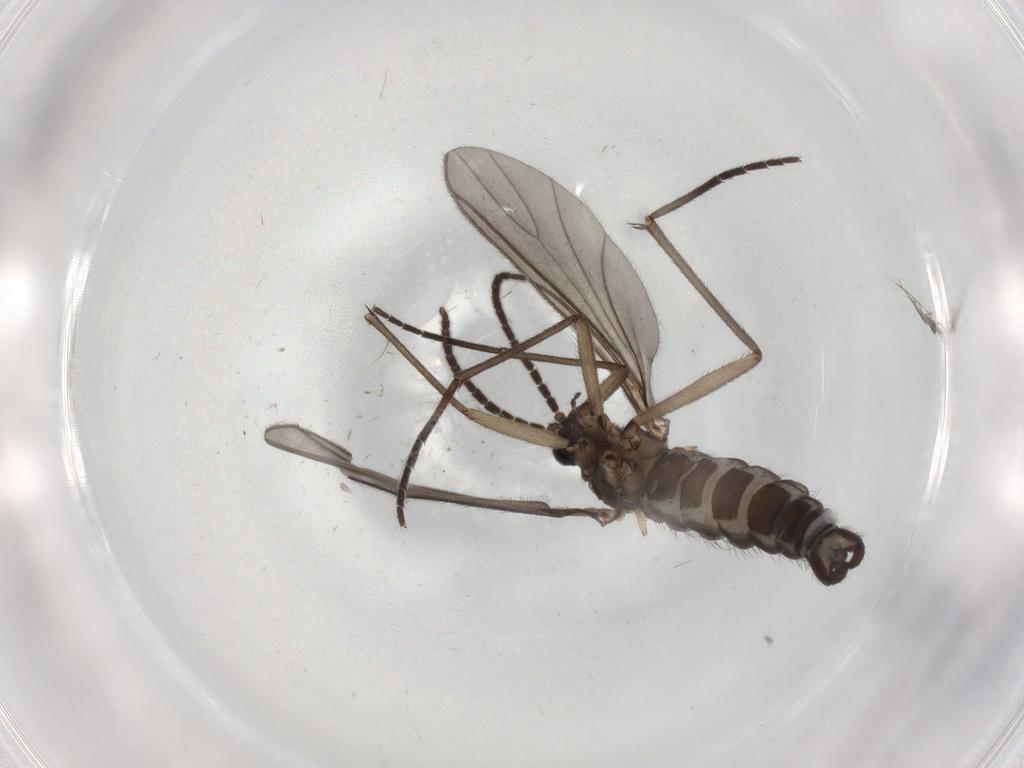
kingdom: Animalia
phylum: Arthropoda
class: Insecta
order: Diptera
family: Sciaridae
